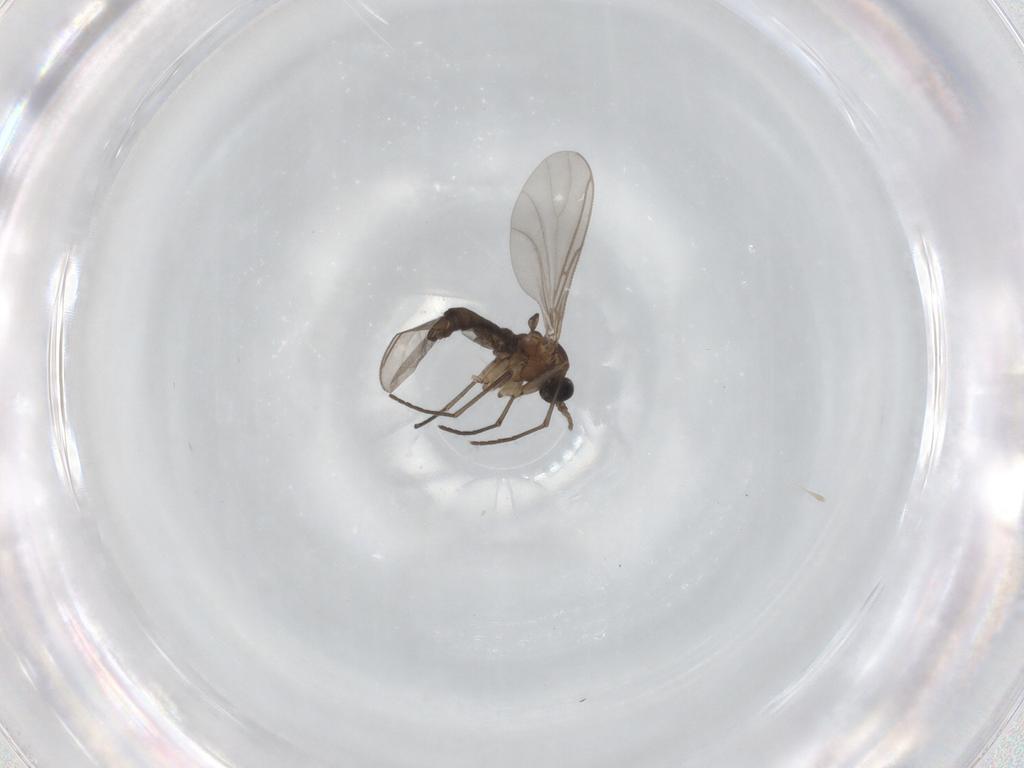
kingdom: Animalia
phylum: Arthropoda
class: Insecta
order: Diptera
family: Sciaridae
